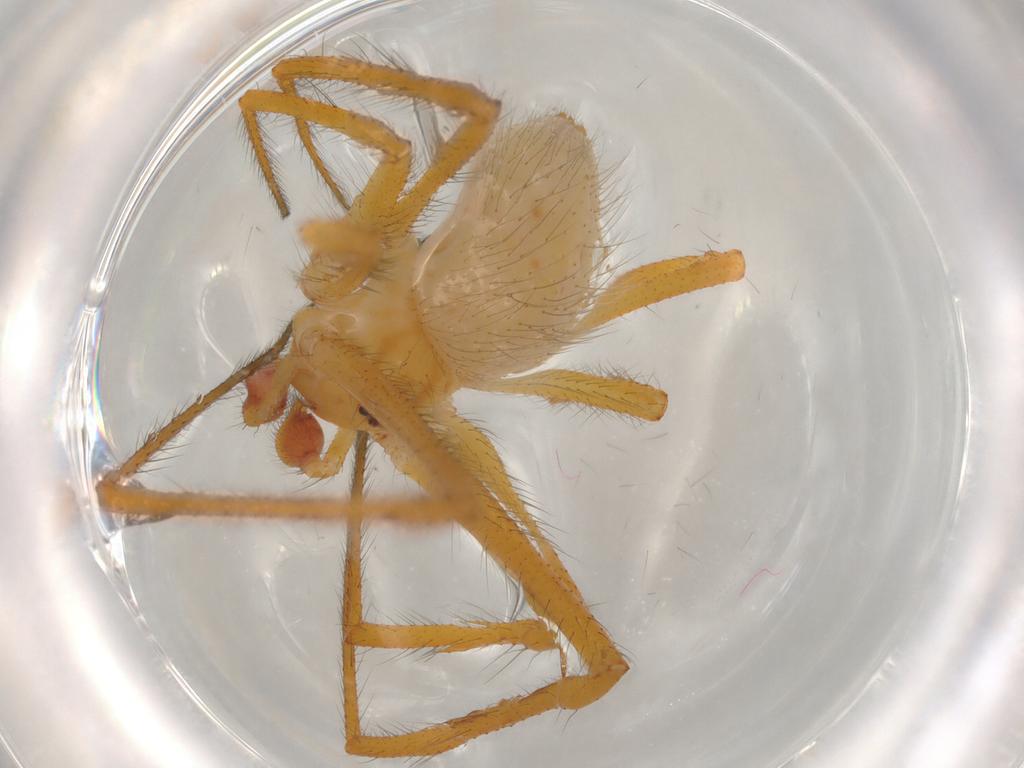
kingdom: Animalia
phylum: Arthropoda
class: Arachnida
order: Araneae
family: Theridiidae
